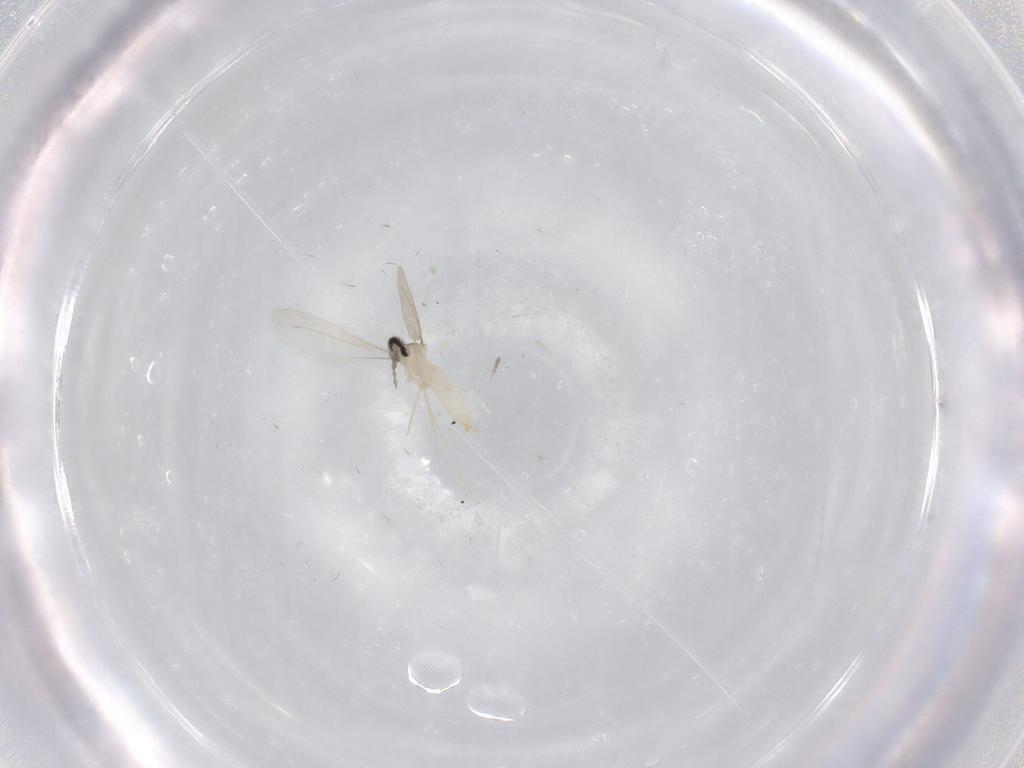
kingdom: Animalia
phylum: Arthropoda
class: Insecta
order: Diptera
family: Cecidomyiidae
